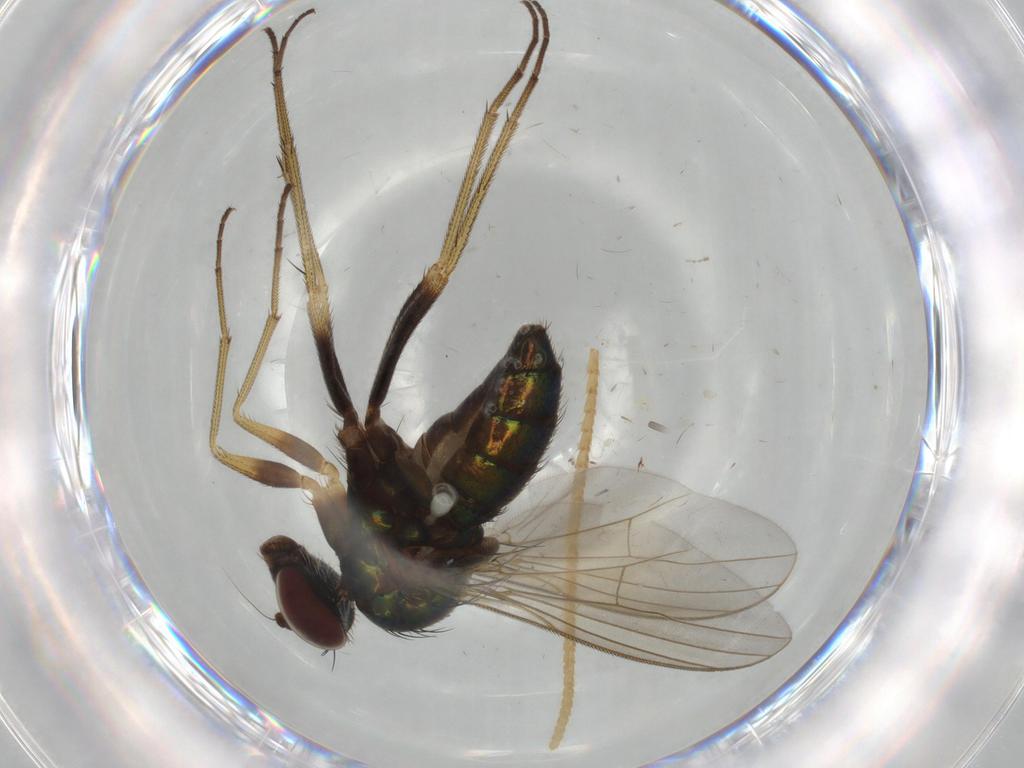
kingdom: Animalia
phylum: Arthropoda
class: Insecta
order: Diptera
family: Dolichopodidae
